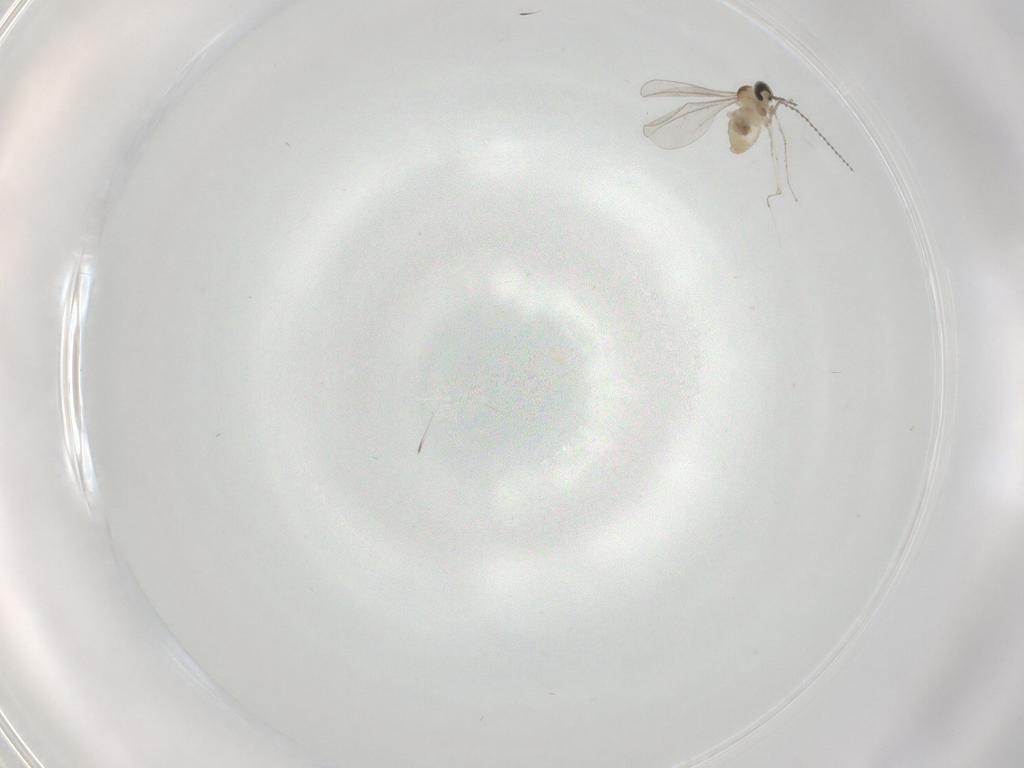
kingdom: Animalia
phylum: Arthropoda
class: Insecta
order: Diptera
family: Cecidomyiidae
